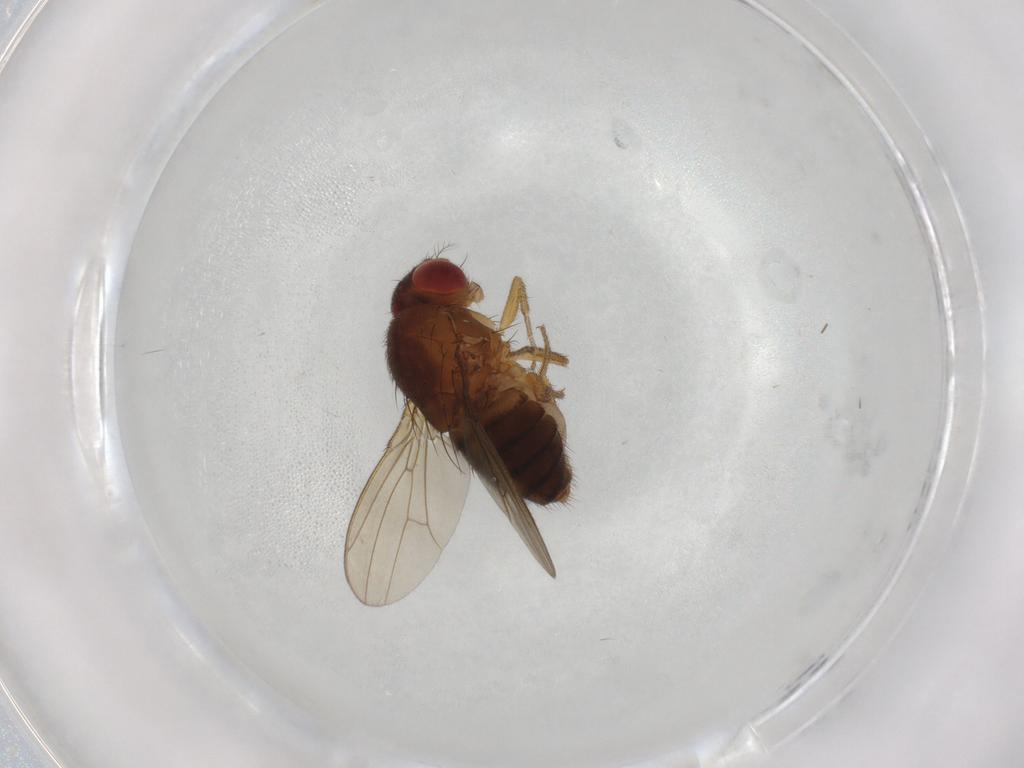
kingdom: Animalia
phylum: Arthropoda
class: Insecta
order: Diptera
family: Drosophilidae
